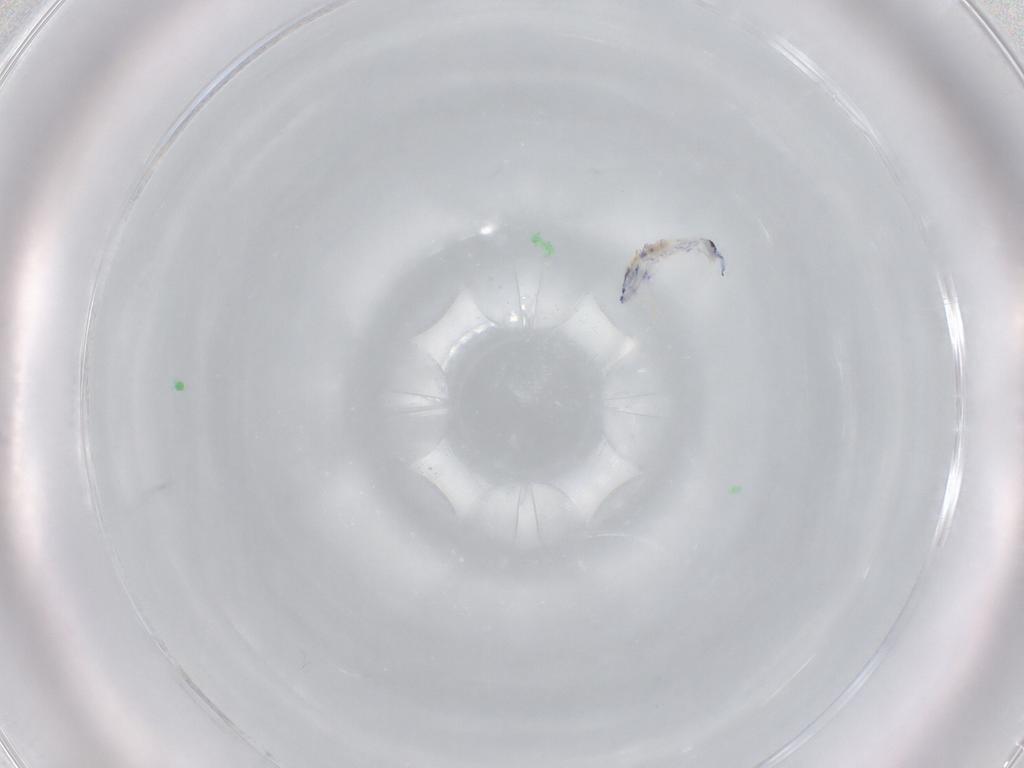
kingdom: Animalia
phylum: Arthropoda
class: Collembola
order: Entomobryomorpha
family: Entomobryidae
